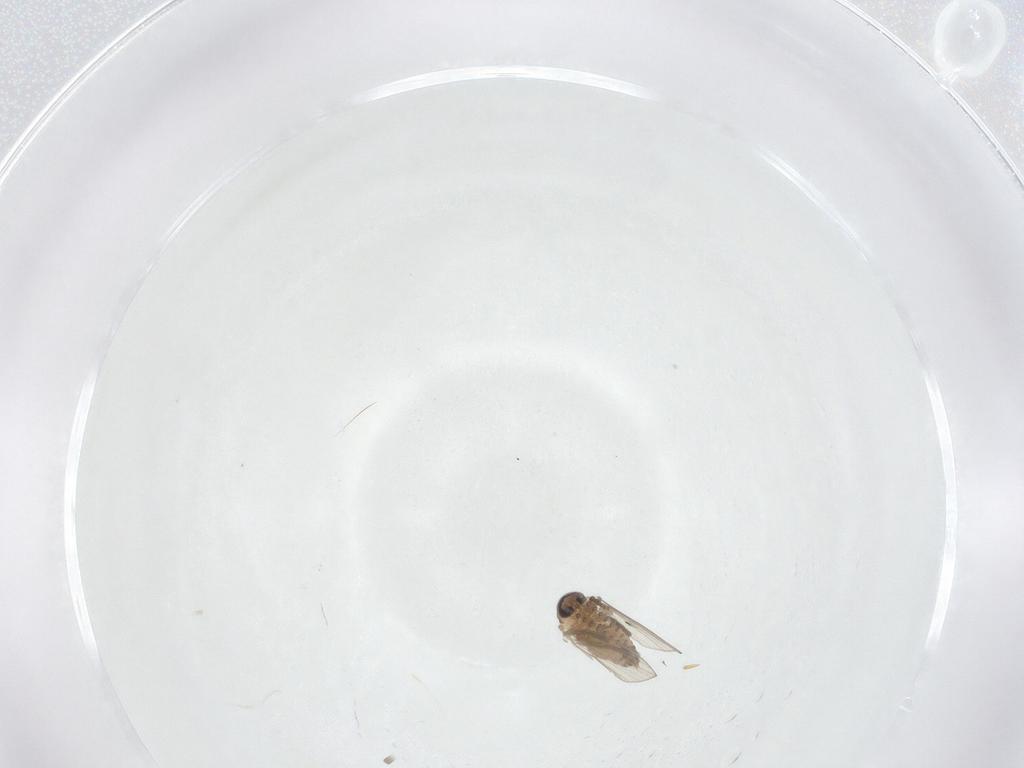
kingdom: Animalia
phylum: Arthropoda
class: Insecta
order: Diptera
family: Psychodidae
